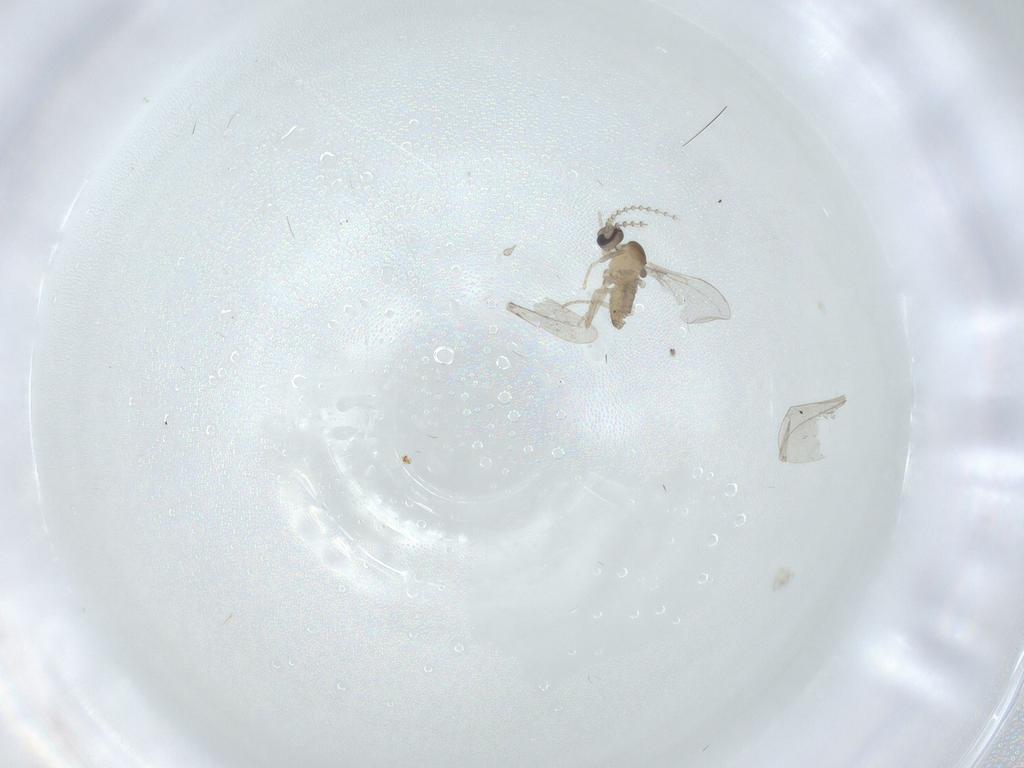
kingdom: Animalia
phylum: Arthropoda
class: Insecta
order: Diptera
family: Cecidomyiidae
